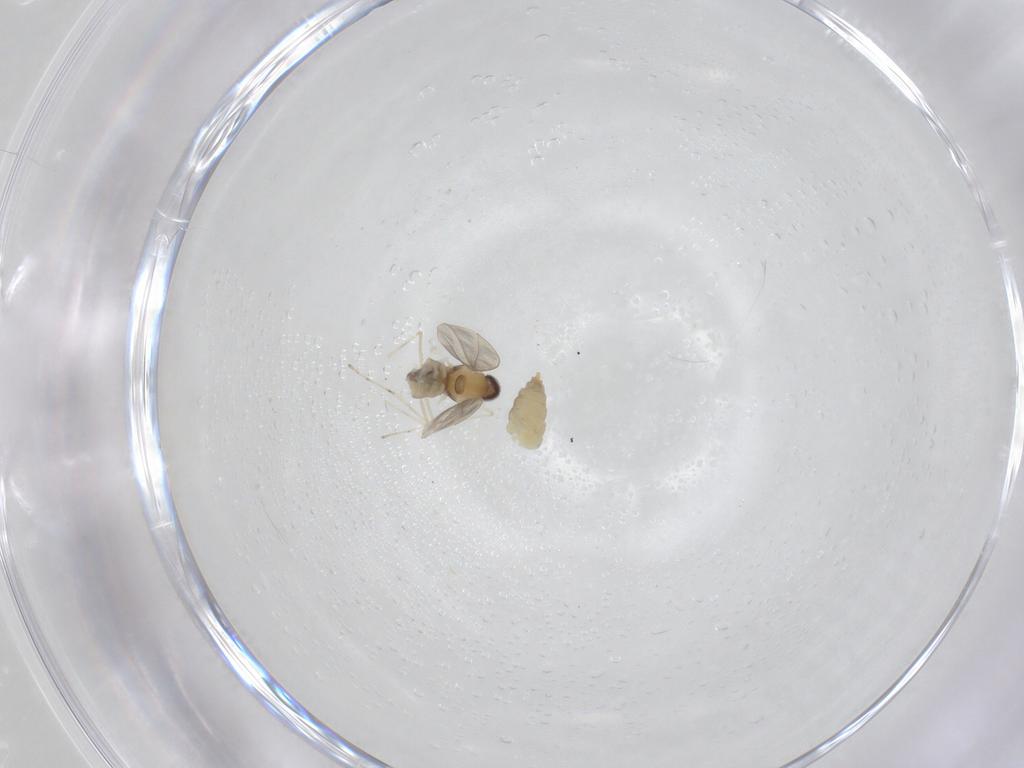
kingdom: Animalia
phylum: Arthropoda
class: Insecta
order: Diptera
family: Cecidomyiidae
